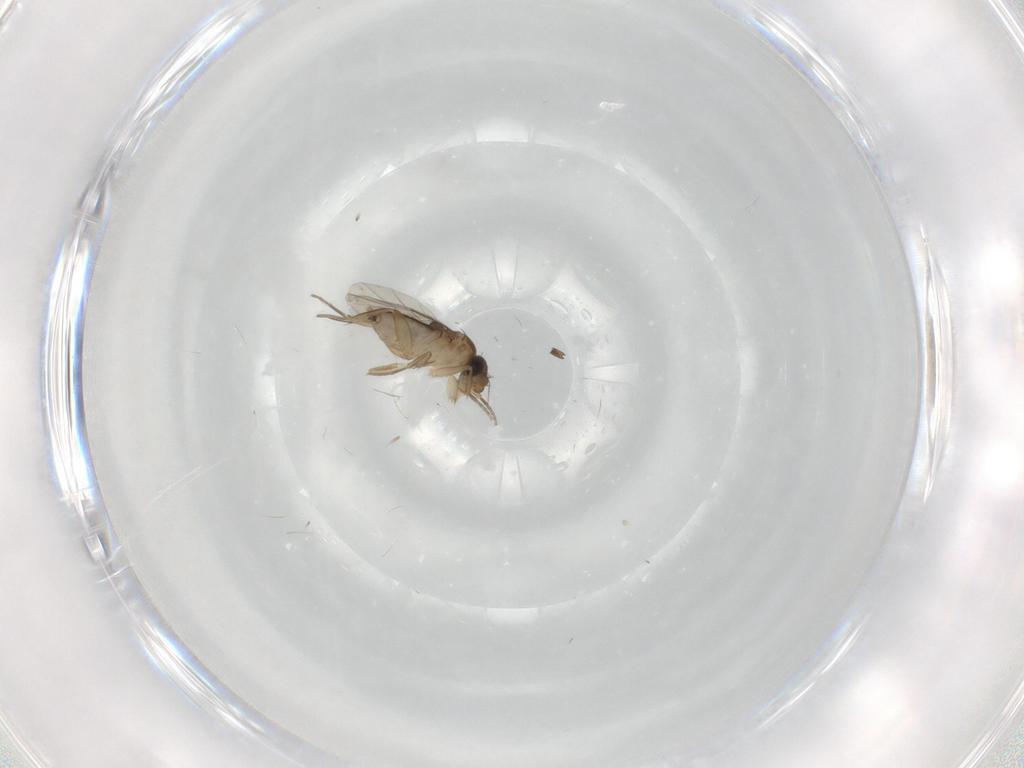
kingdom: Animalia
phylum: Arthropoda
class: Insecta
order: Diptera
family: Phoridae
